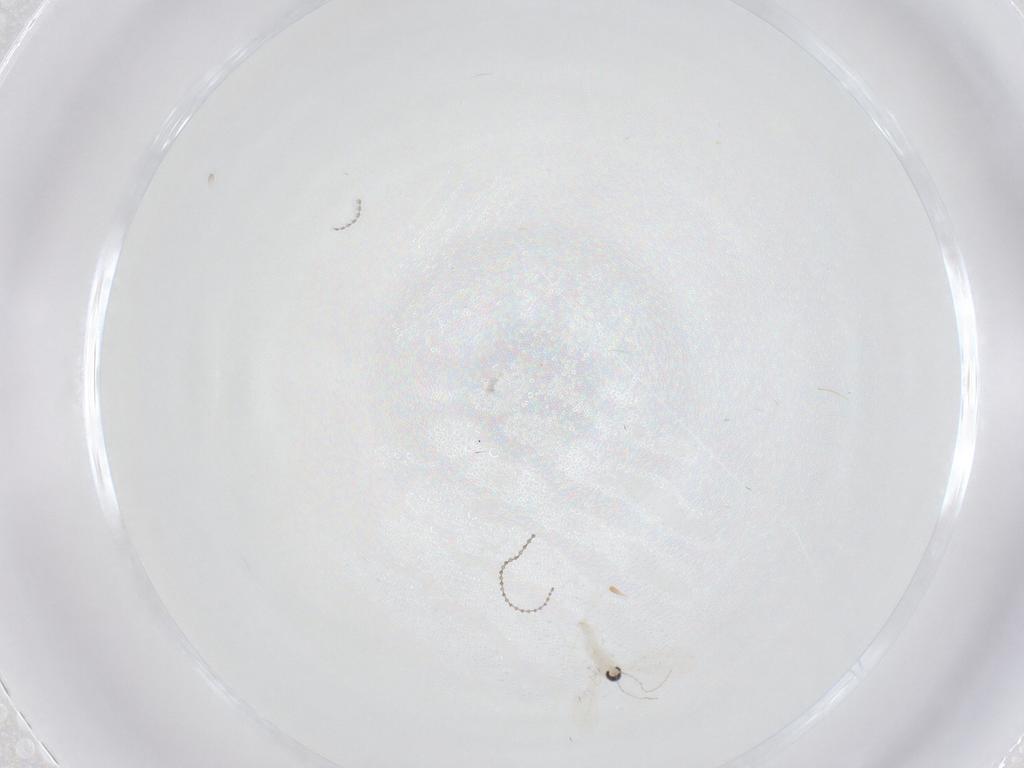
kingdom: Animalia
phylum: Arthropoda
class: Insecta
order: Diptera
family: Cecidomyiidae
